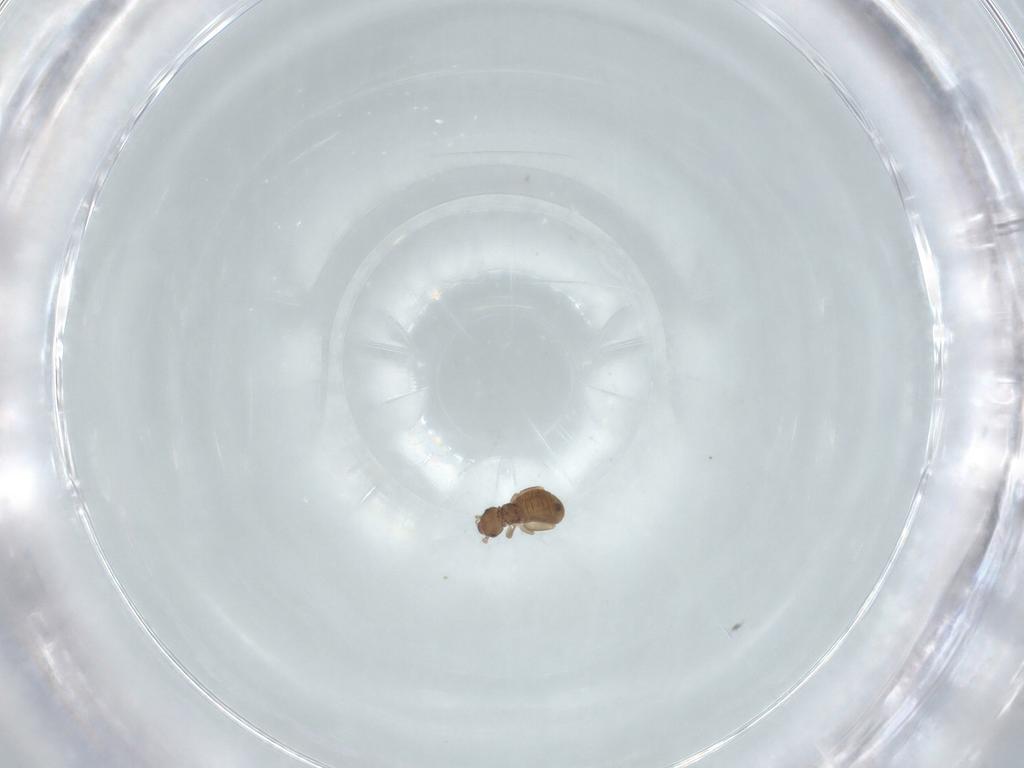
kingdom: Animalia
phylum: Arthropoda
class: Insecta
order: Psocodea
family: Liposcelididae
